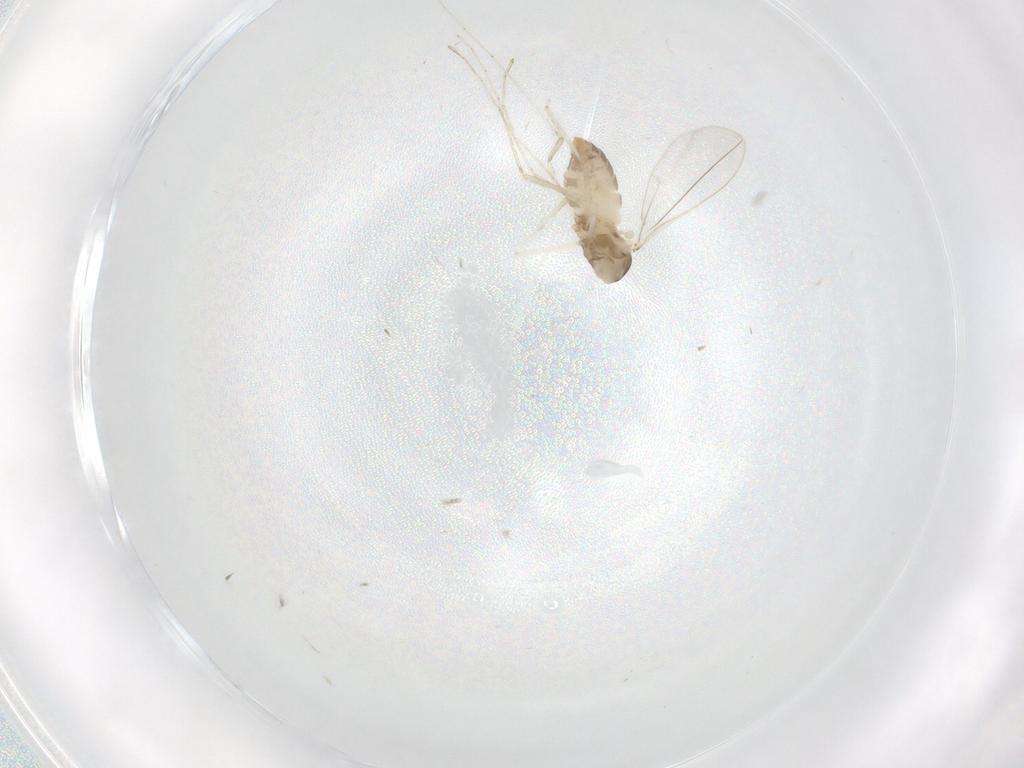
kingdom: Animalia
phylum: Arthropoda
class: Insecta
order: Diptera
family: Cecidomyiidae
